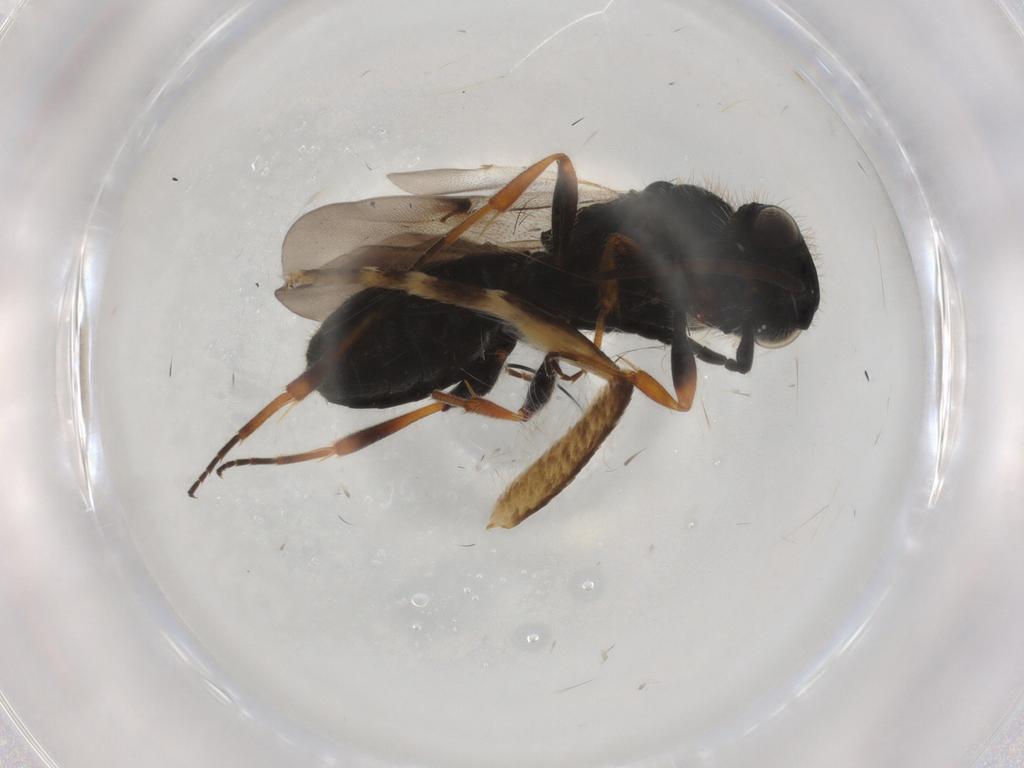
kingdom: Animalia
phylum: Arthropoda
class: Insecta
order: Hymenoptera
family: Scelionidae
